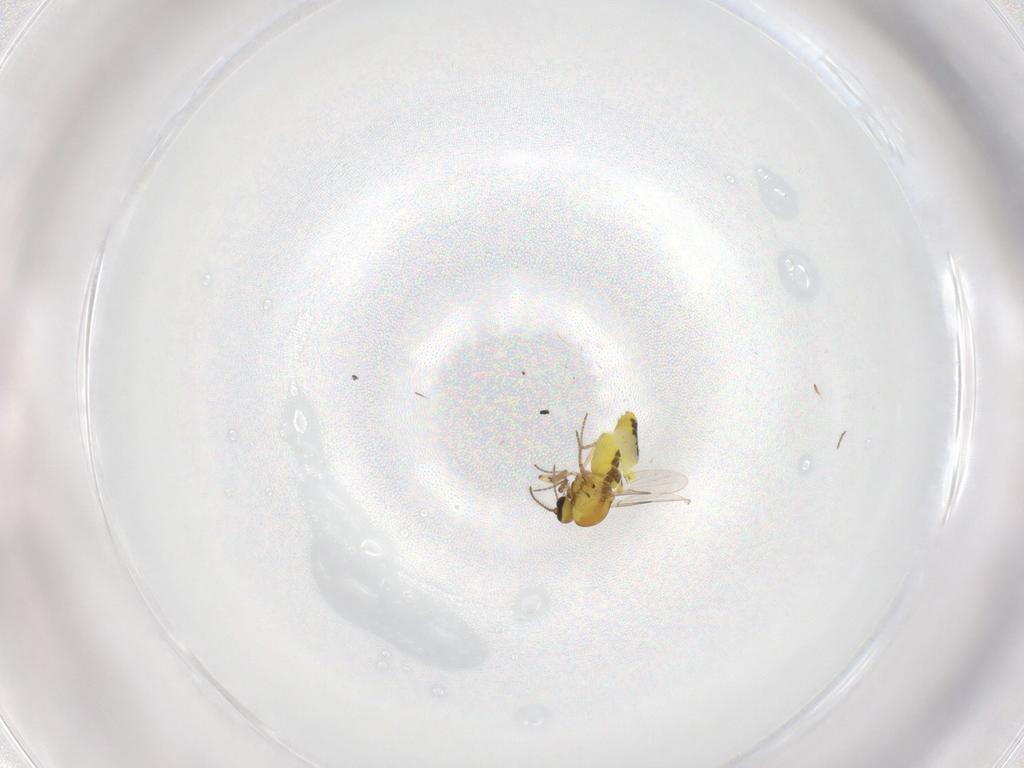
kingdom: Animalia
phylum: Arthropoda
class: Insecta
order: Diptera
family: Ceratopogonidae
